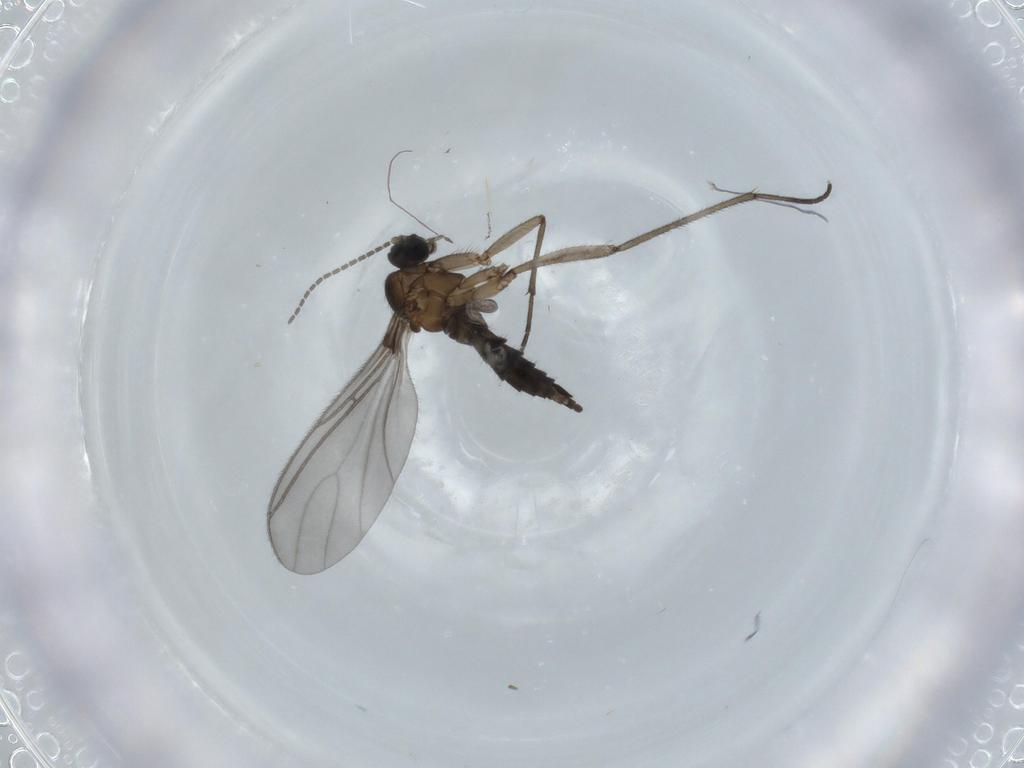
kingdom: Animalia
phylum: Arthropoda
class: Insecta
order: Diptera
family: Sciaridae
